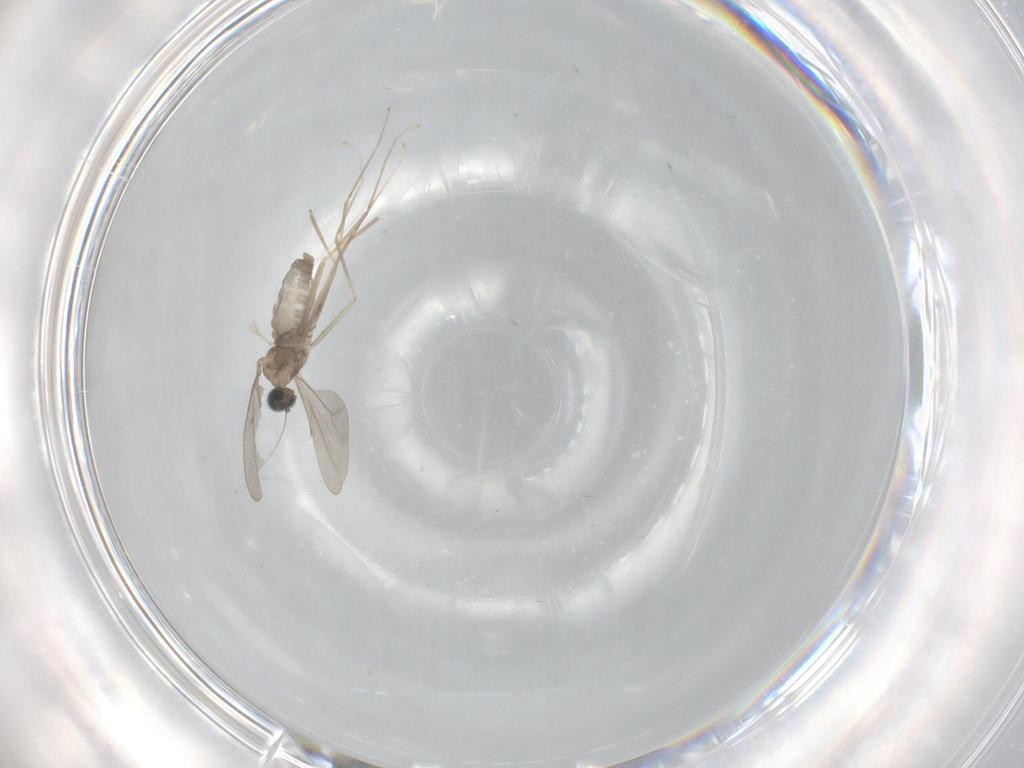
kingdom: Animalia
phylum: Arthropoda
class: Insecta
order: Diptera
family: Cecidomyiidae
